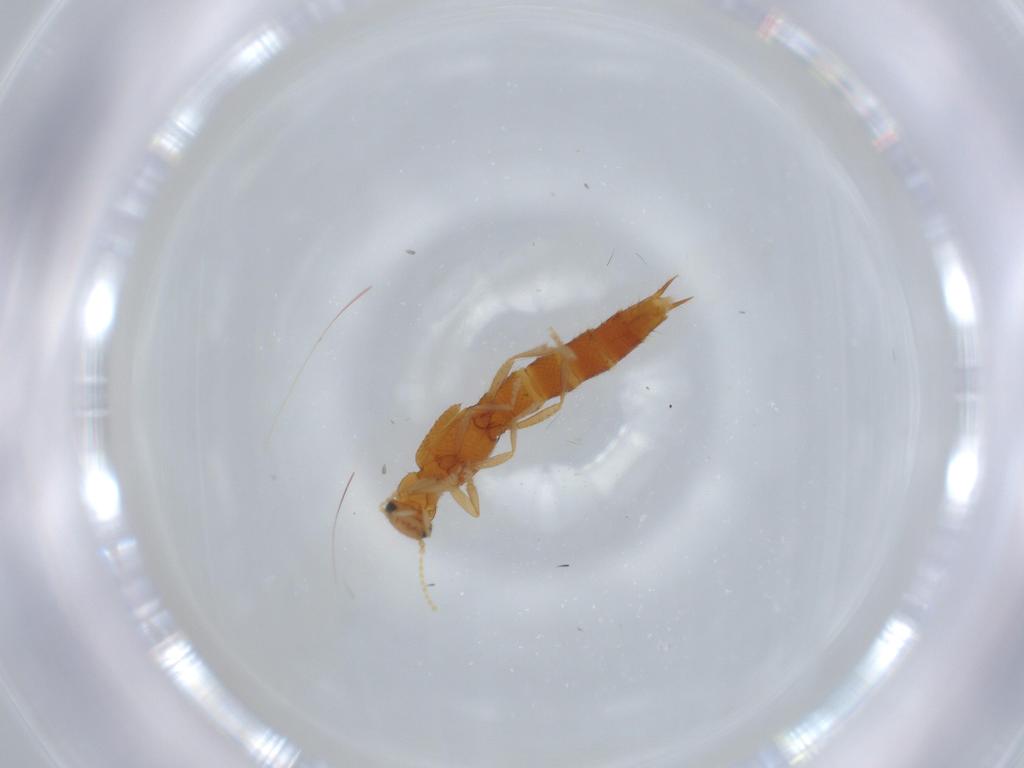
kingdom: Animalia
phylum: Arthropoda
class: Insecta
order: Coleoptera
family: Staphylinidae
